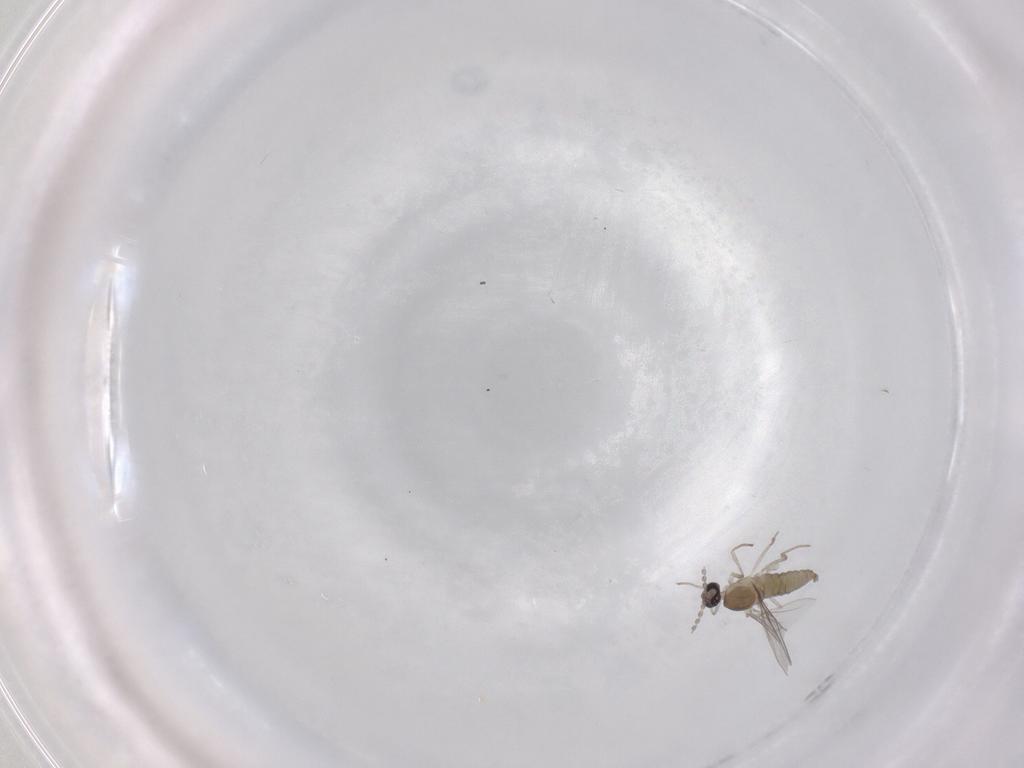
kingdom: Animalia
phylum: Arthropoda
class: Insecta
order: Diptera
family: Cecidomyiidae
